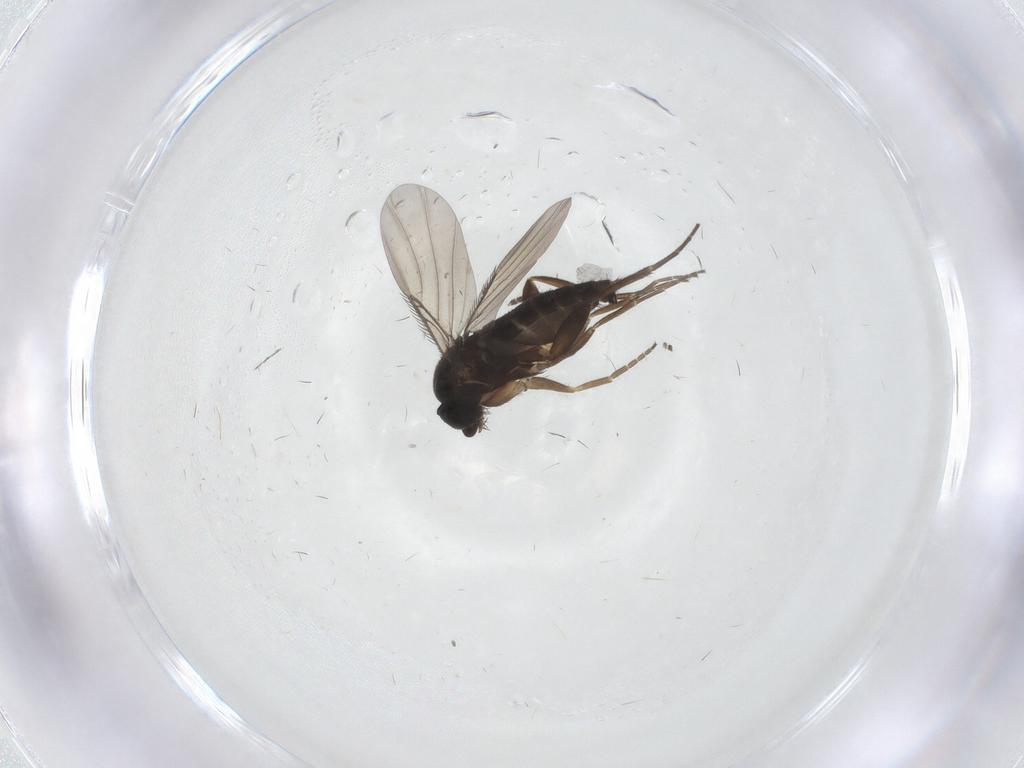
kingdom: Animalia
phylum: Arthropoda
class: Insecta
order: Diptera
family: Phoridae
